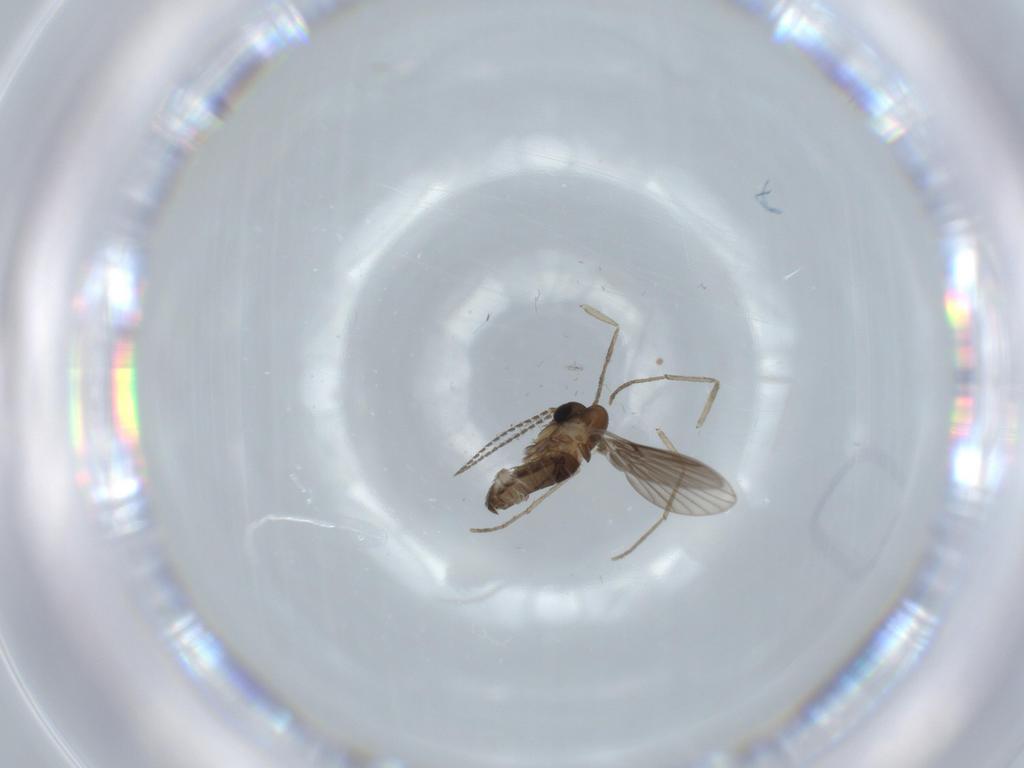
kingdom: Animalia
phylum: Arthropoda
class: Insecta
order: Diptera
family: Psychodidae
